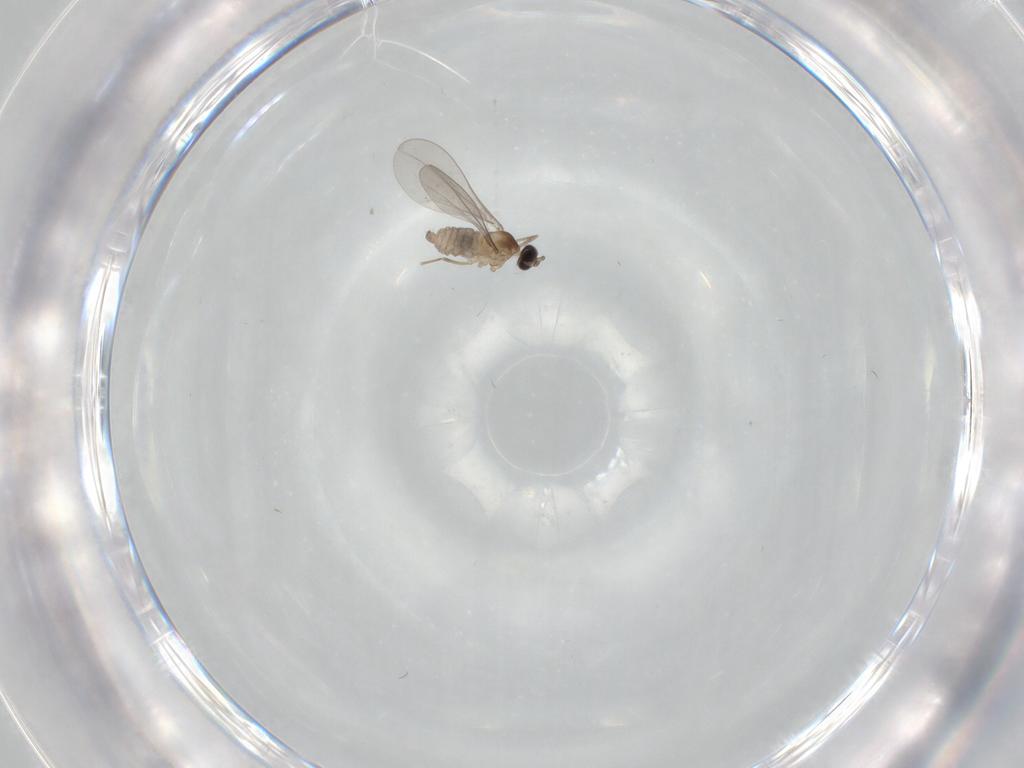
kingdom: Animalia
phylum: Arthropoda
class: Insecta
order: Diptera
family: Cecidomyiidae
